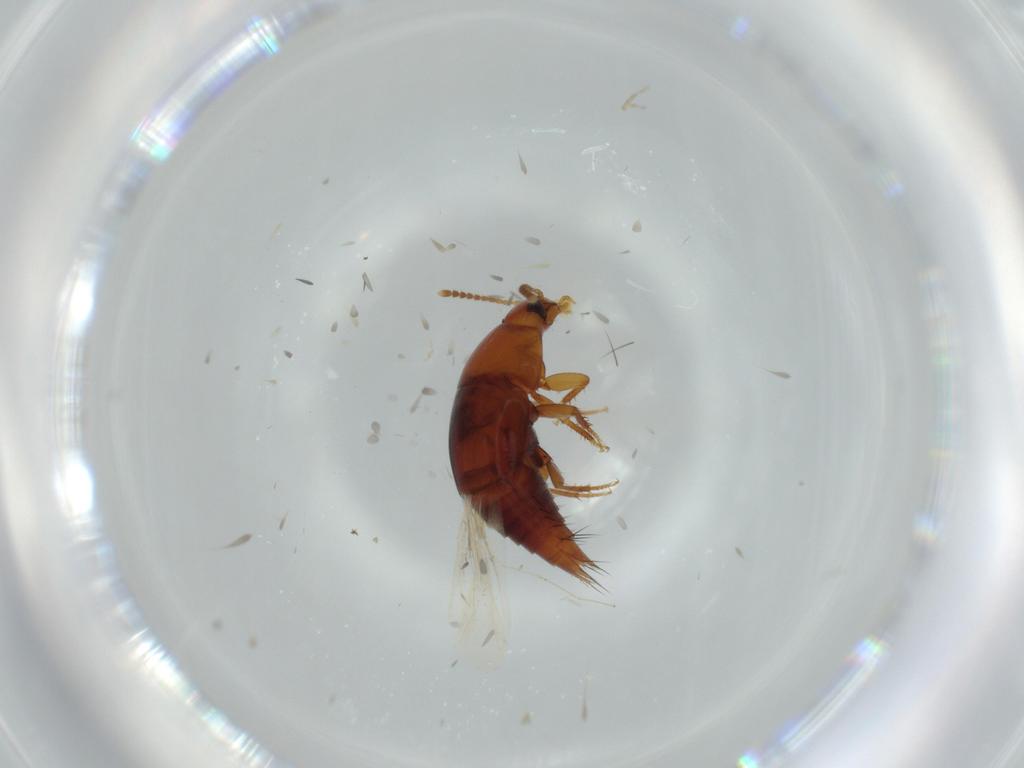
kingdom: Animalia
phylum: Arthropoda
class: Insecta
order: Coleoptera
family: Staphylinidae
